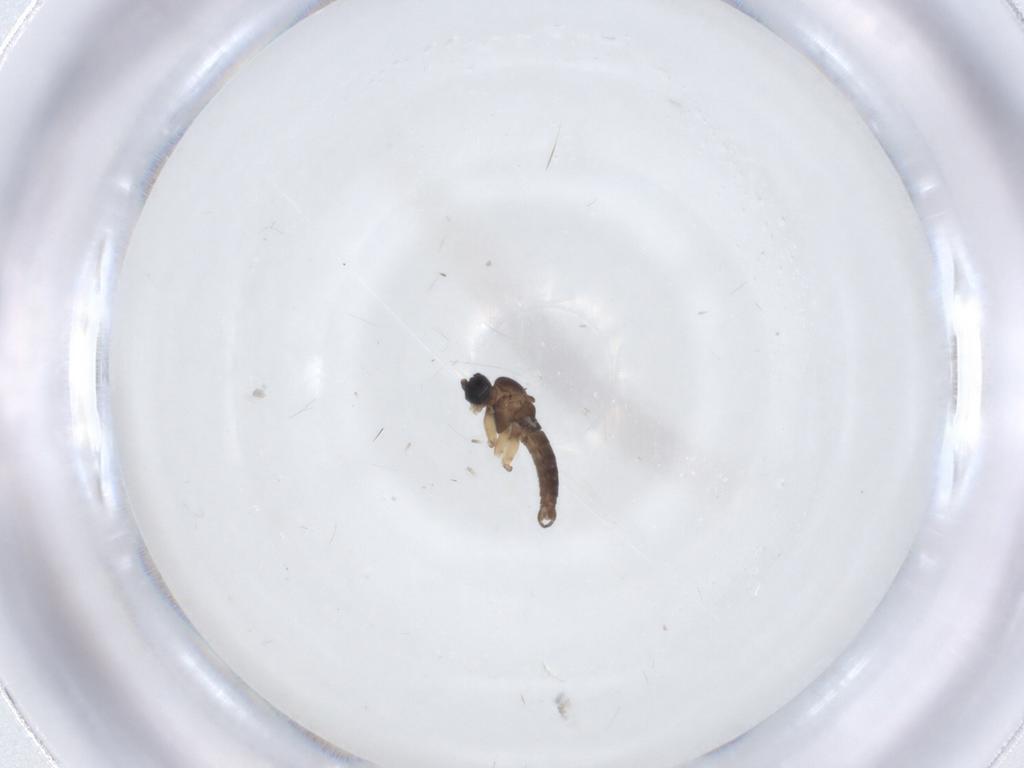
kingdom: Animalia
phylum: Arthropoda
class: Insecta
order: Diptera
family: Sciaridae
